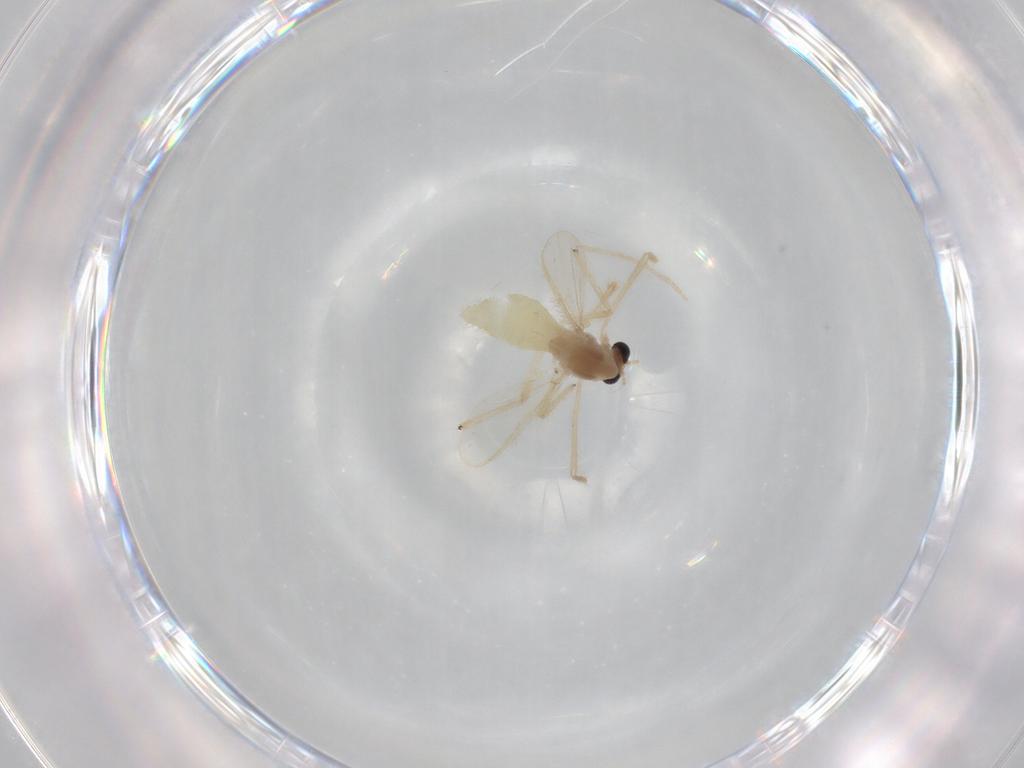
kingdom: Animalia
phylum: Arthropoda
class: Insecta
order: Diptera
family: Chironomidae
